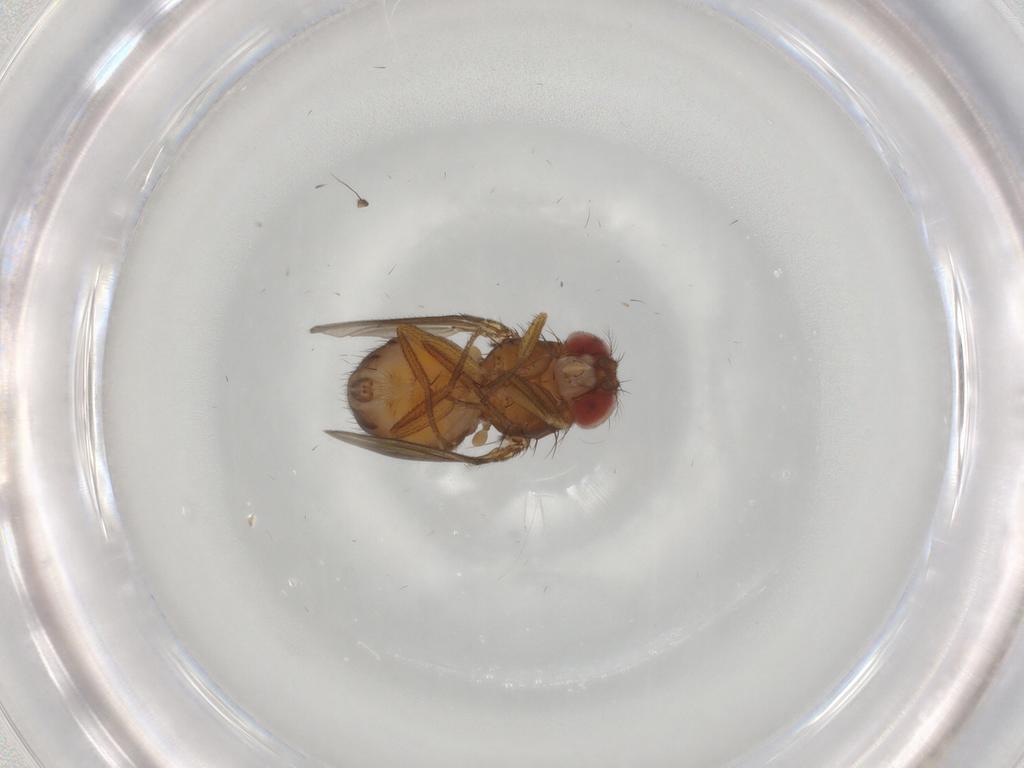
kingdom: Animalia
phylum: Arthropoda
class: Insecta
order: Diptera
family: Drosophilidae
